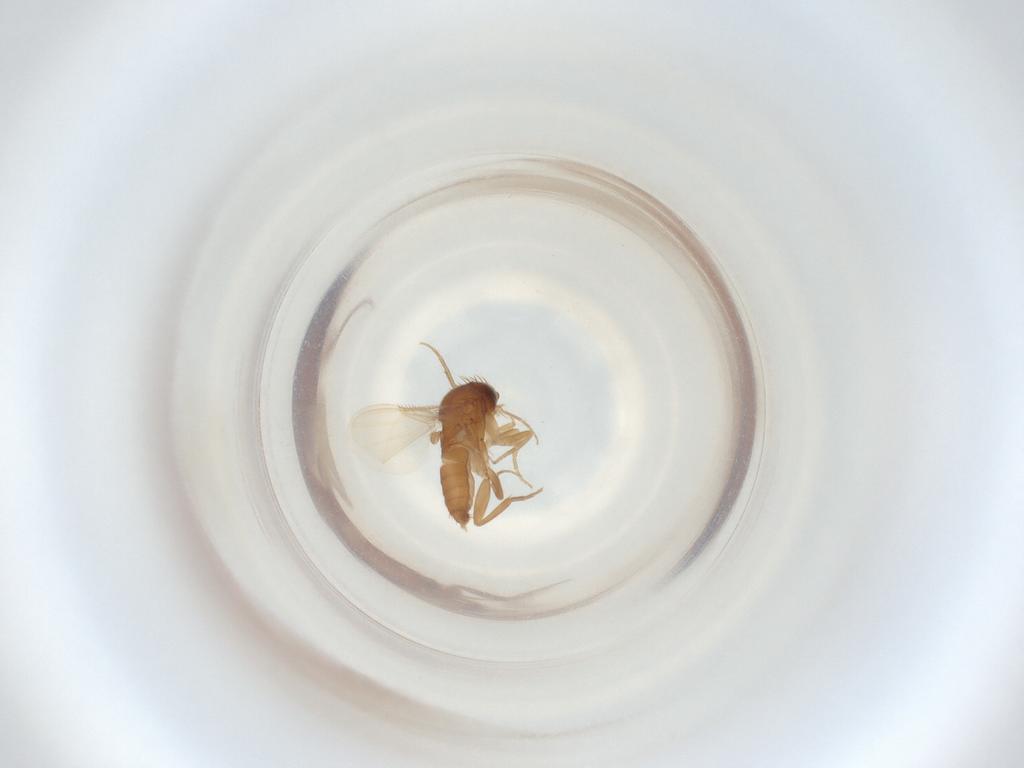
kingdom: Animalia
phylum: Arthropoda
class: Insecta
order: Diptera
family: Phoridae
